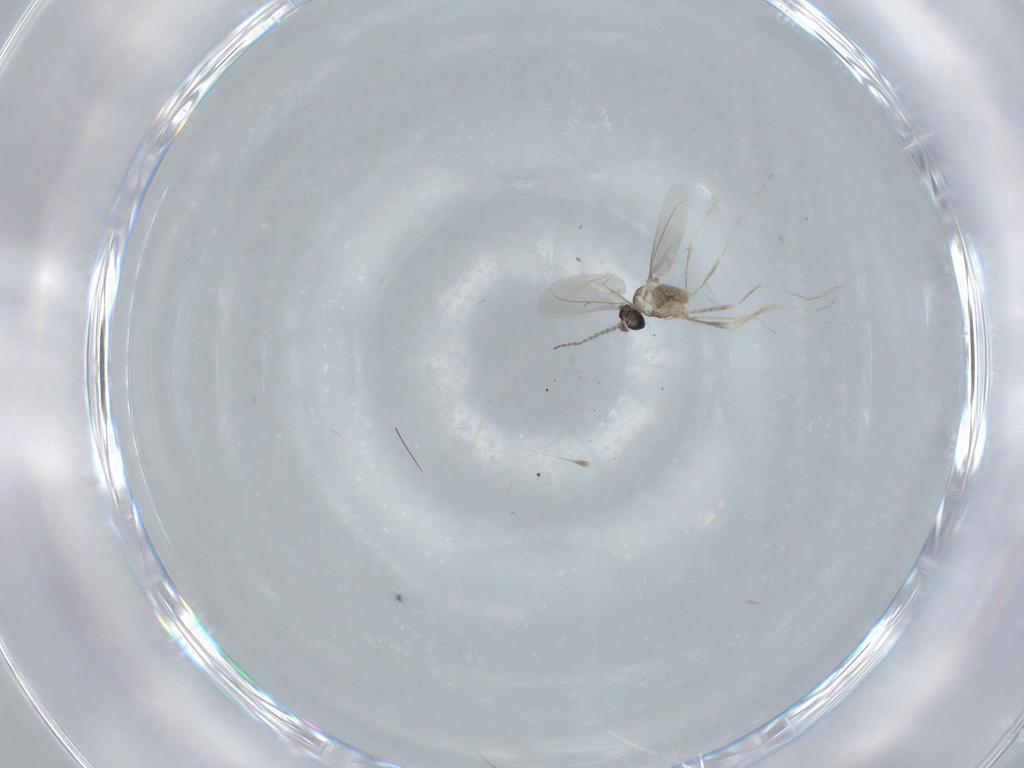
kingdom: Animalia
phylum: Arthropoda
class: Insecta
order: Diptera
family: Cecidomyiidae
